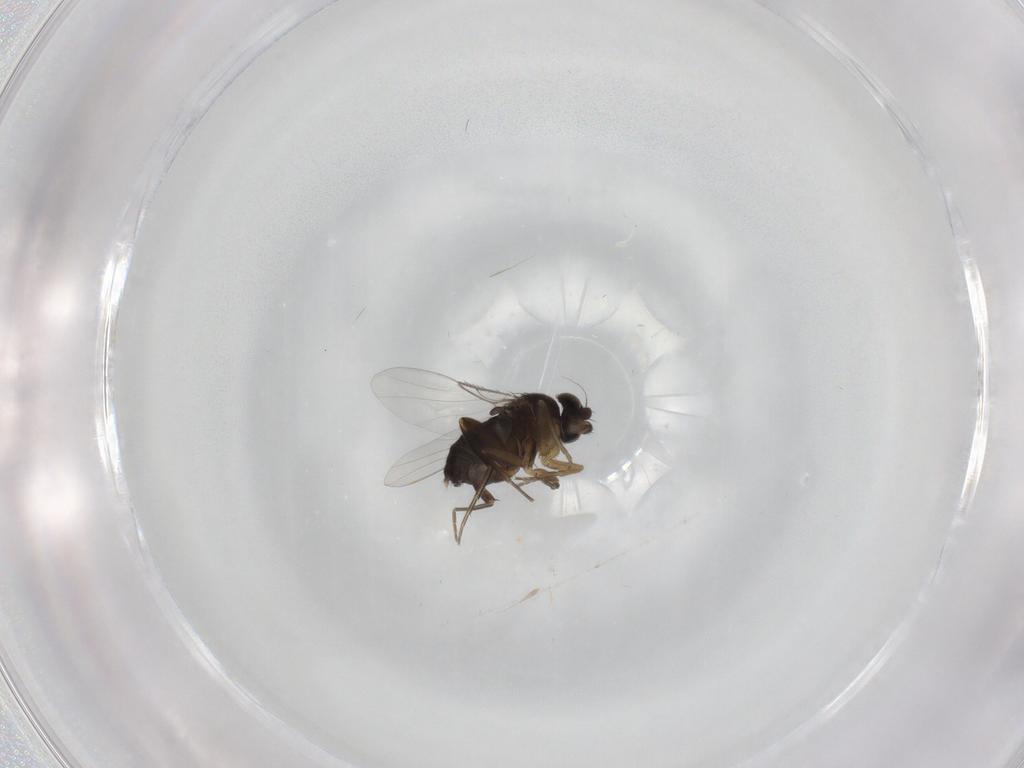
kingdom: Animalia
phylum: Arthropoda
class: Insecta
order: Diptera
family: Phoridae
